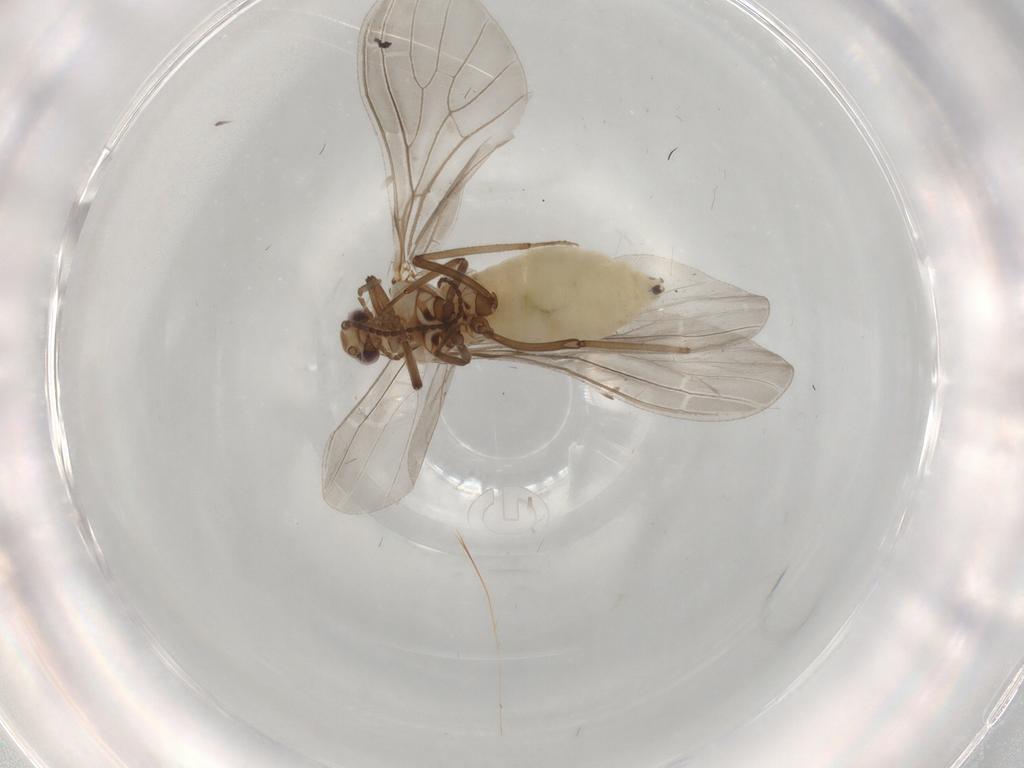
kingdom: Animalia
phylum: Arthropoda
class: Insecta
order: Neuroptera
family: Coniopterygidae
